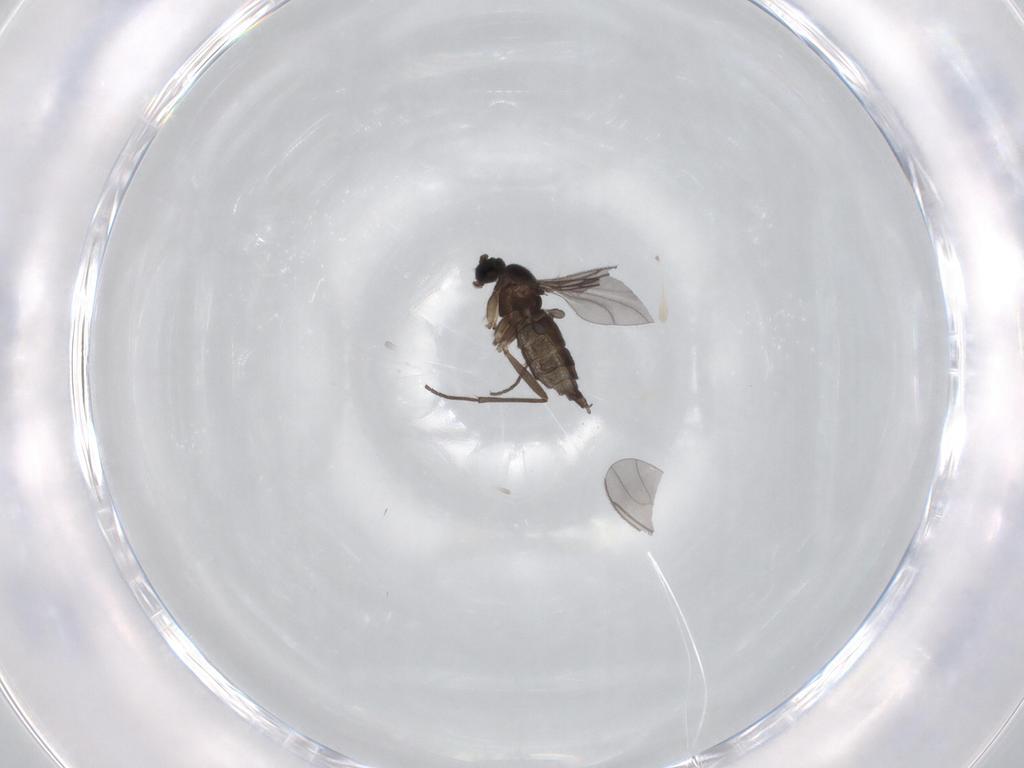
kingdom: Animalia
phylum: Arthropoda
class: Insecta
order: Diptera
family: Sciaridae
